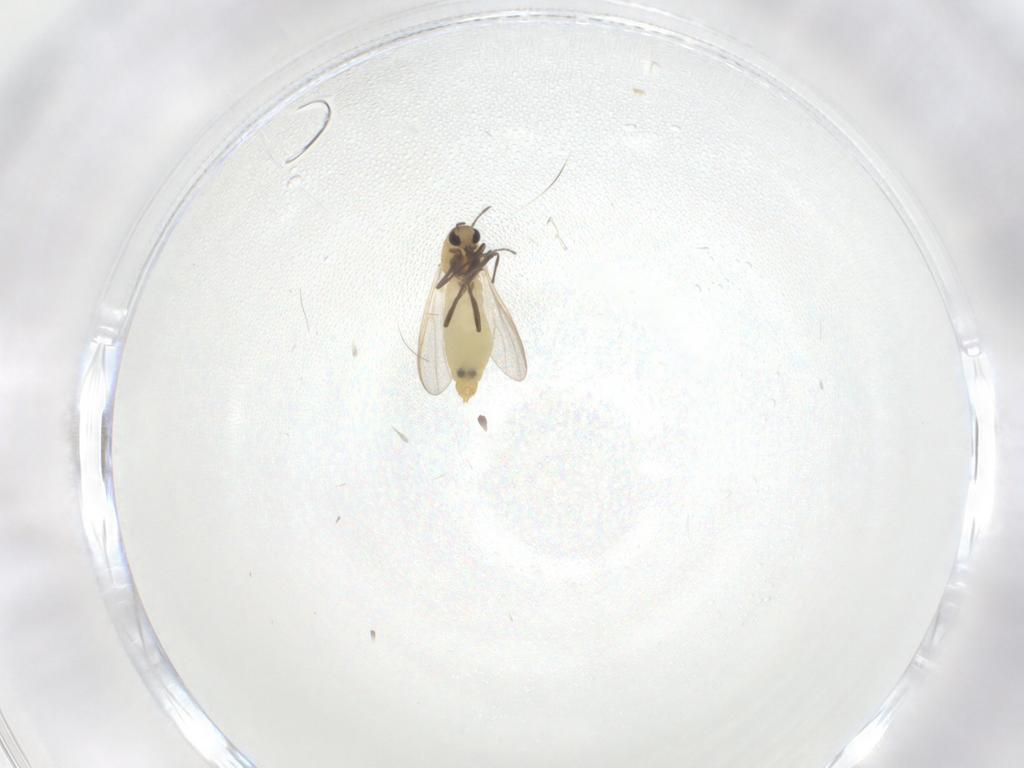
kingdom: Animalia
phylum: Arthropoda
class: Insecta
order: Diptera
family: Chironomidae
